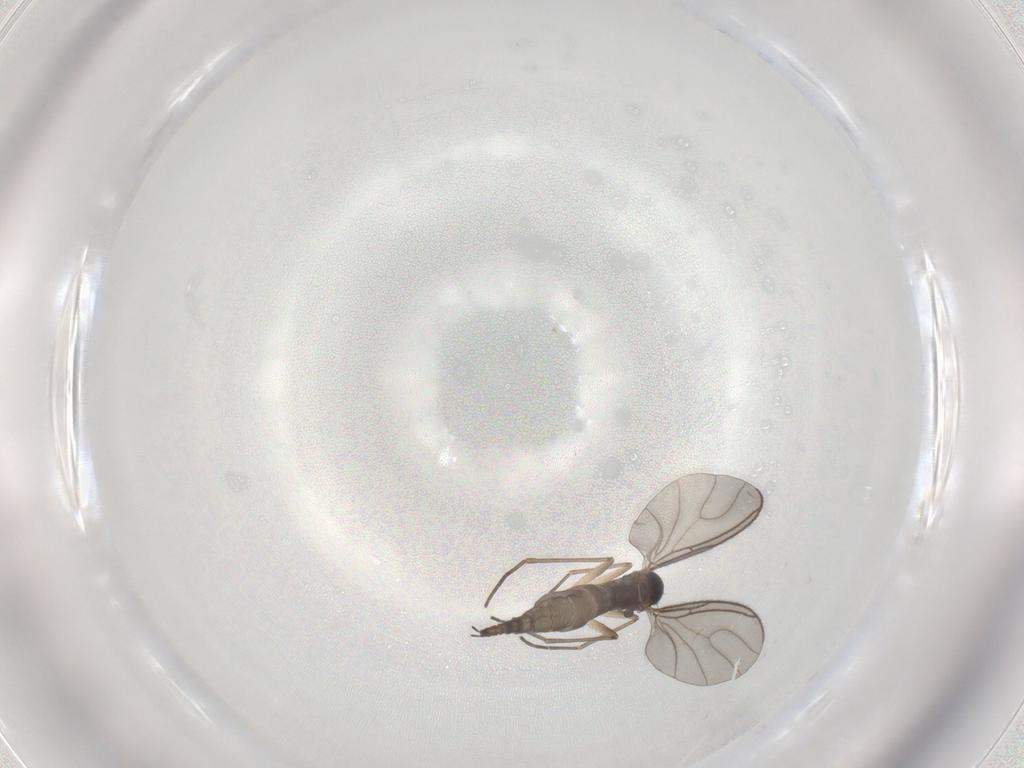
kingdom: Animalia
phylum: Arthropoda
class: Insecta
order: Diptera
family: Sciaridae
